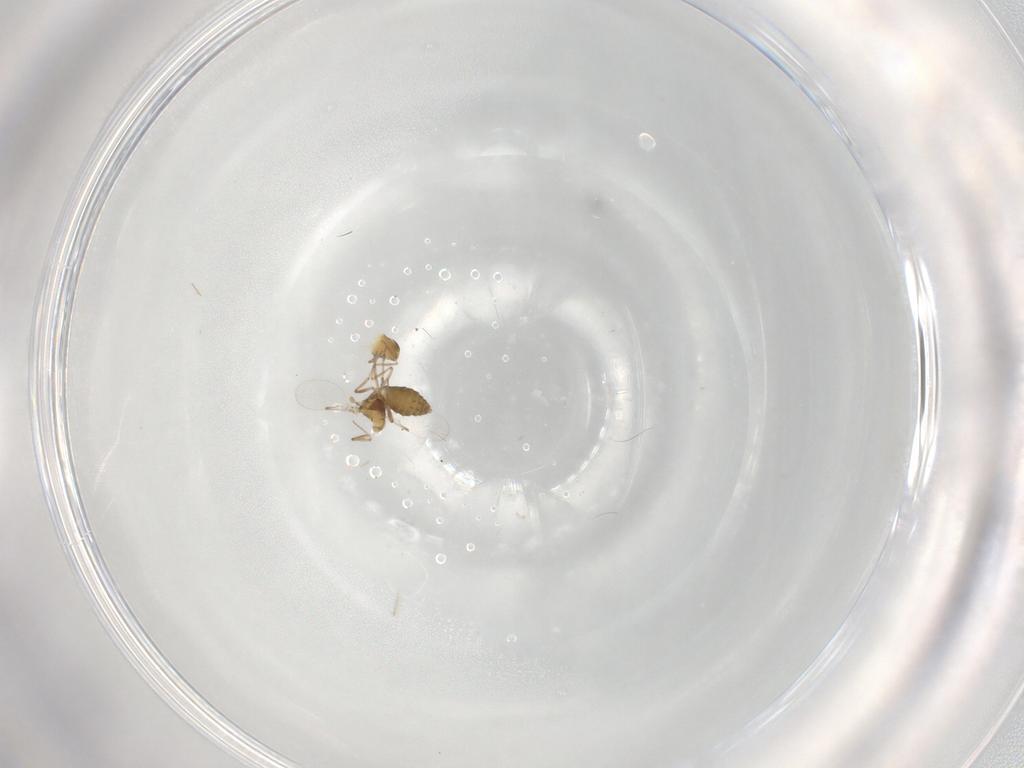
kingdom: Animalia
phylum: Arthropoda
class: Insecta
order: Diptera
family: Ceratopogonidae
